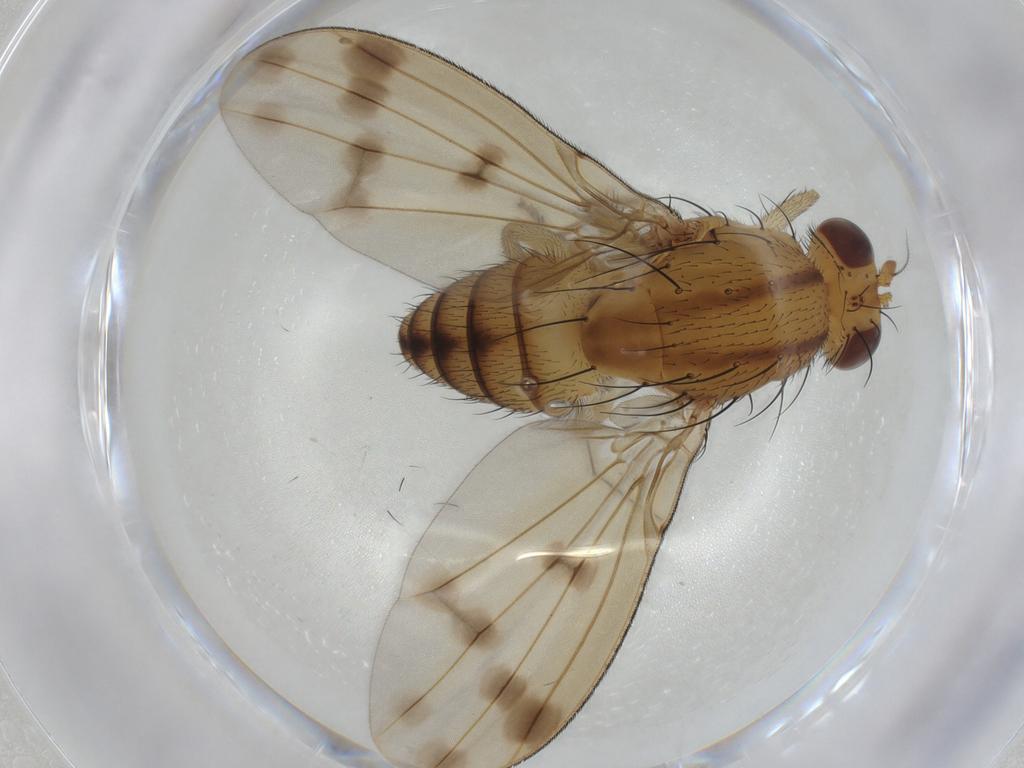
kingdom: Animalia
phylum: Arthropoda
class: Insecta
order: Diptera
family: Lauxaniidae
